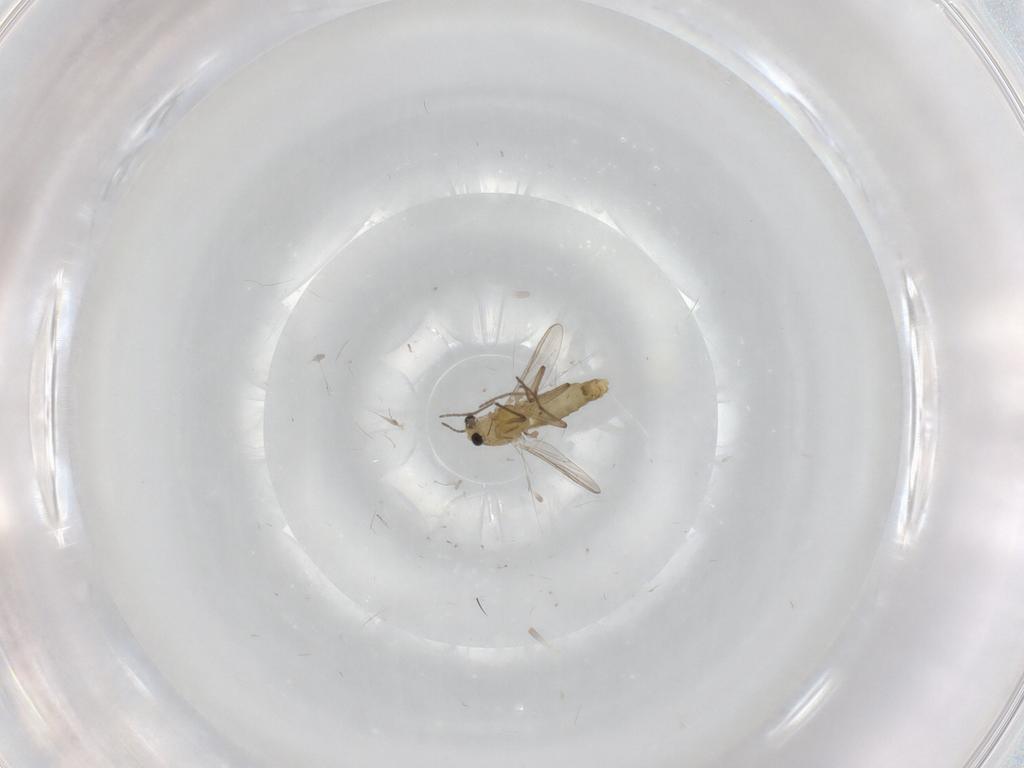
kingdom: Animalia
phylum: Arthropoda
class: Insecta
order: Diptera
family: Chironomidae
